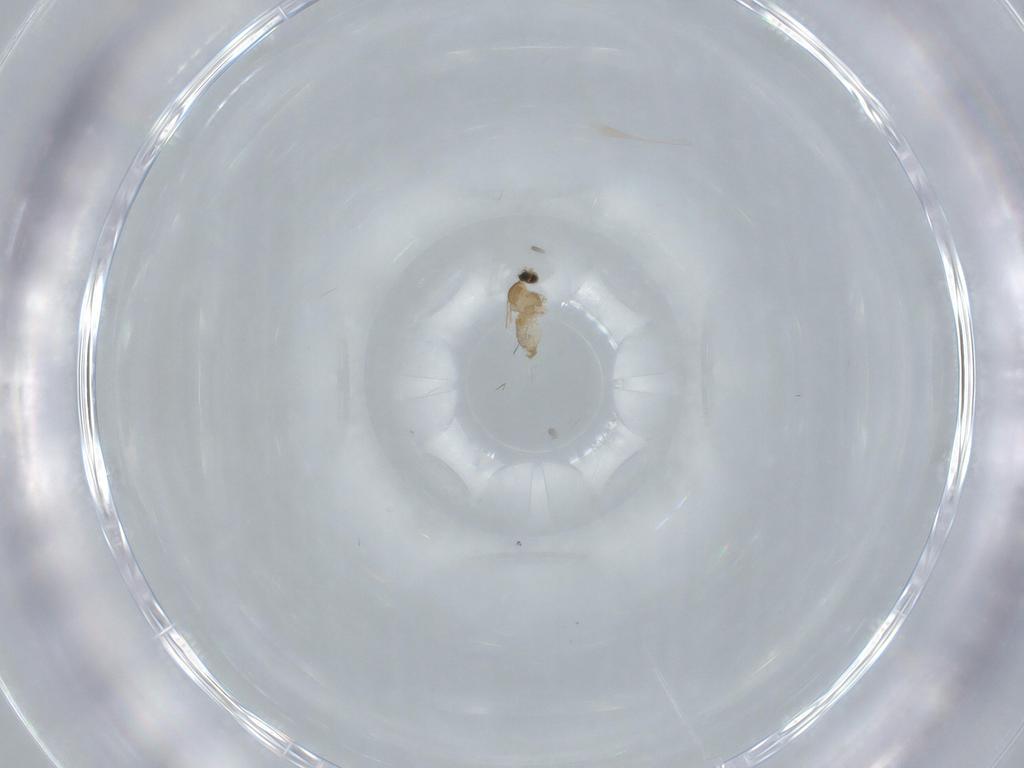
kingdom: Animalia
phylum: Arthropoda
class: Insecta
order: Diptera
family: Cecidomyiidae
